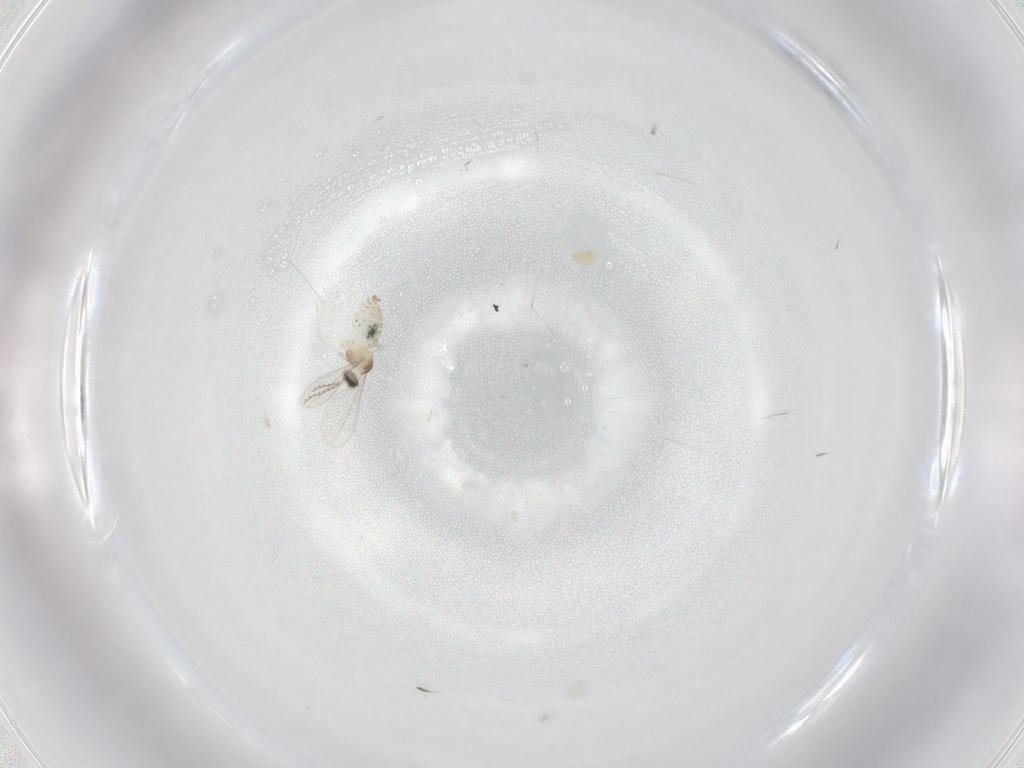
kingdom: Animalia
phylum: Arthropoda
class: Insecta
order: Diptera
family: Cecidomyiidae
